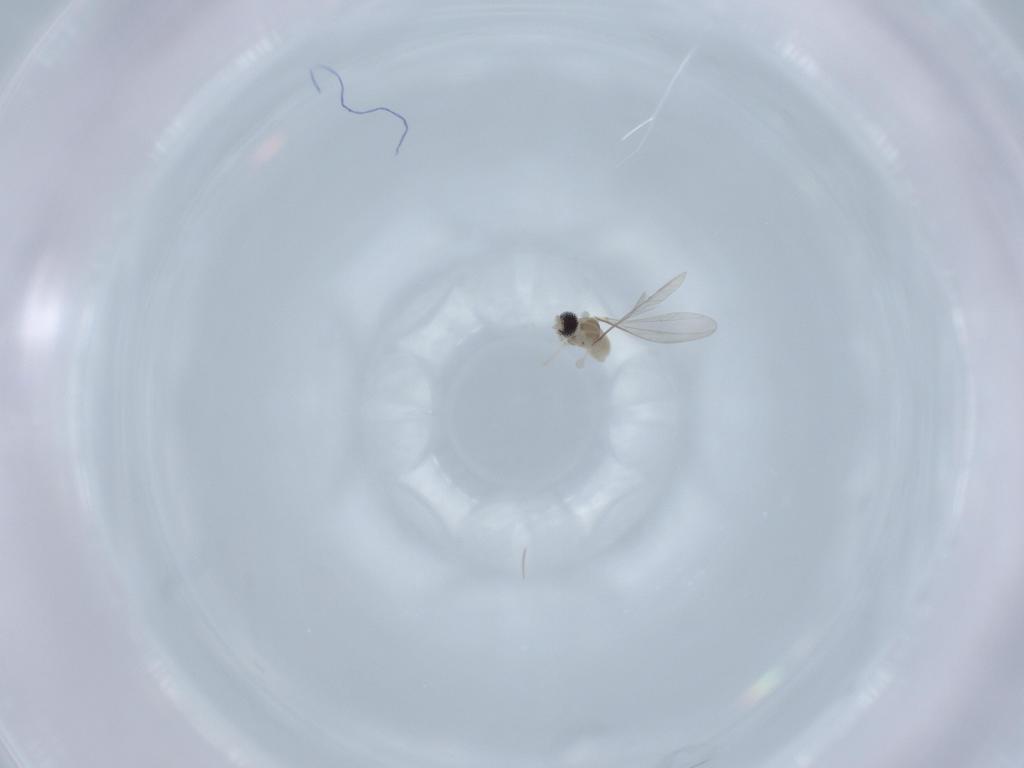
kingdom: Animalia
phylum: Arthropoda
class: Insecta
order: Diptera
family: Cecidomyiidae
